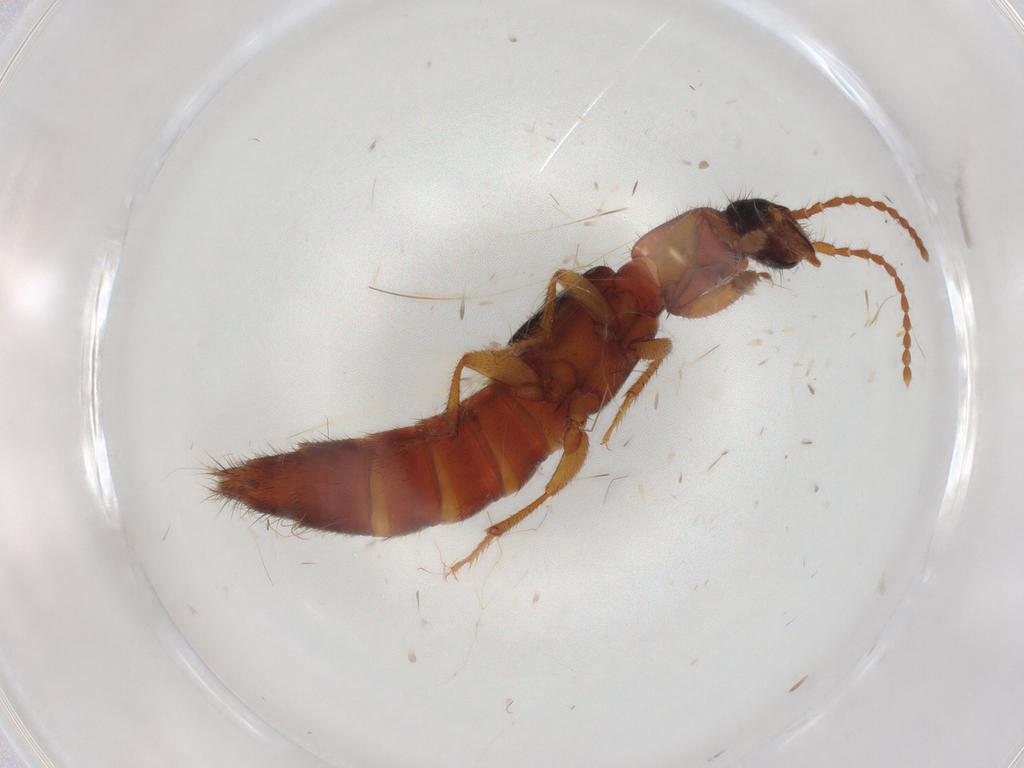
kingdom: Animalia
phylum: Arthropoda
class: Insecta
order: Coleoptera
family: Staphylinidae
